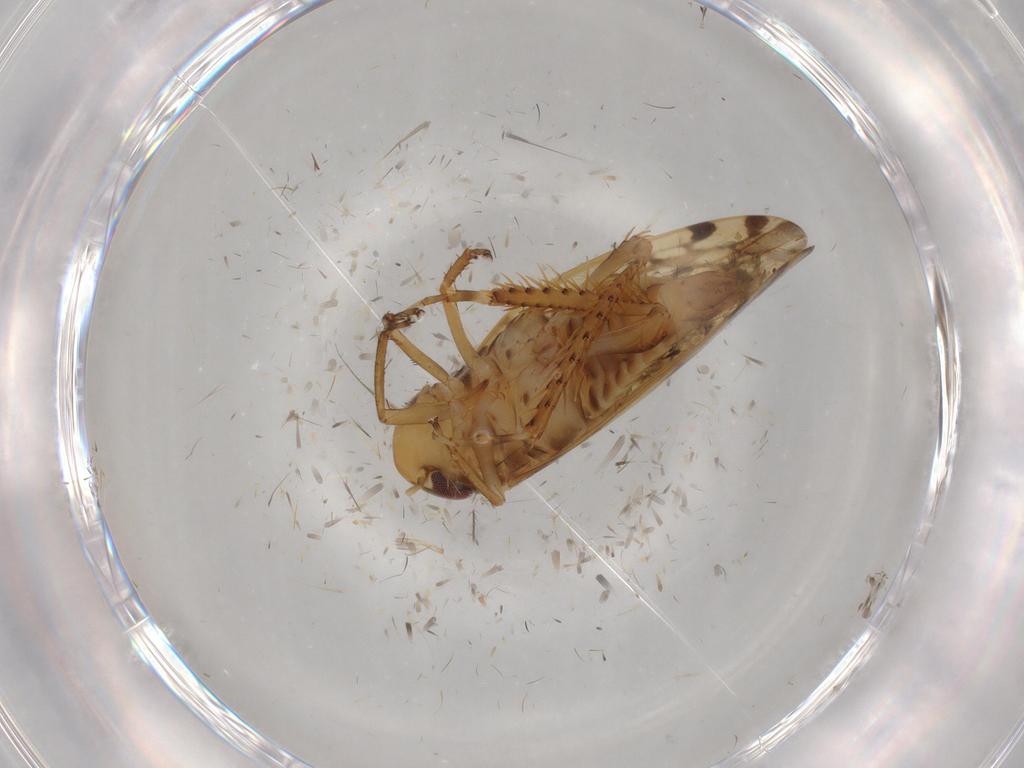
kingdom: Animalia
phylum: Arthropoda
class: Insecta
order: Hemiptera
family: Cicadellidae
